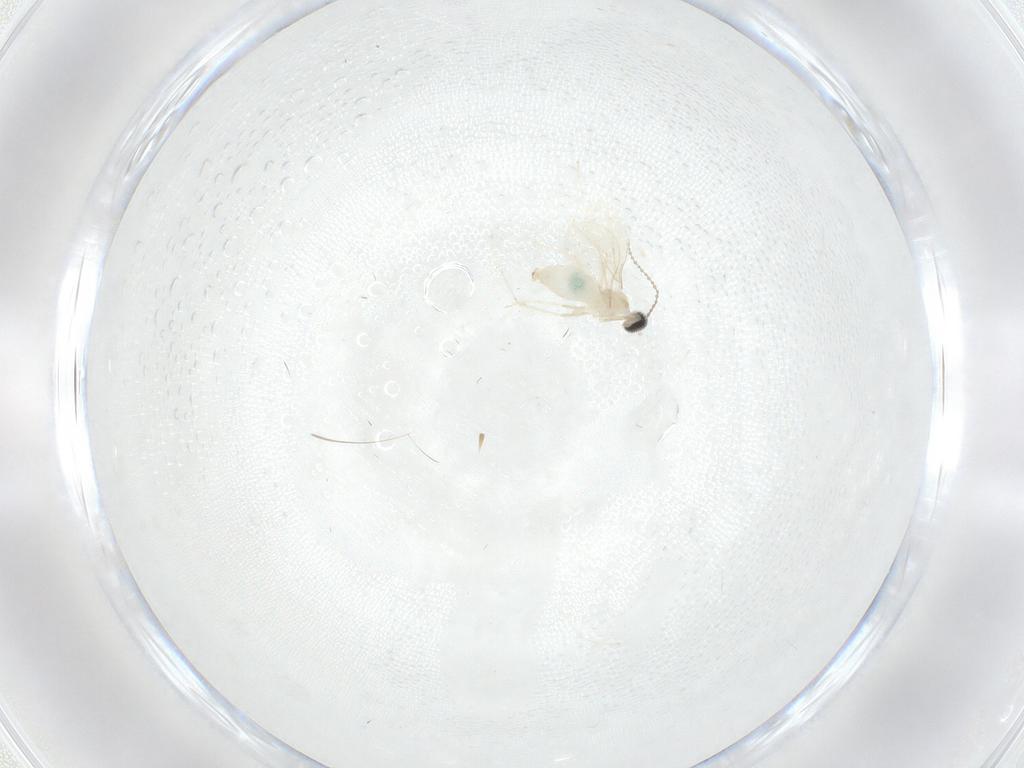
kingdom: Animalia
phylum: Arthropoda
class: Insecta
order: Diptera
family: Cecidomyiidae
